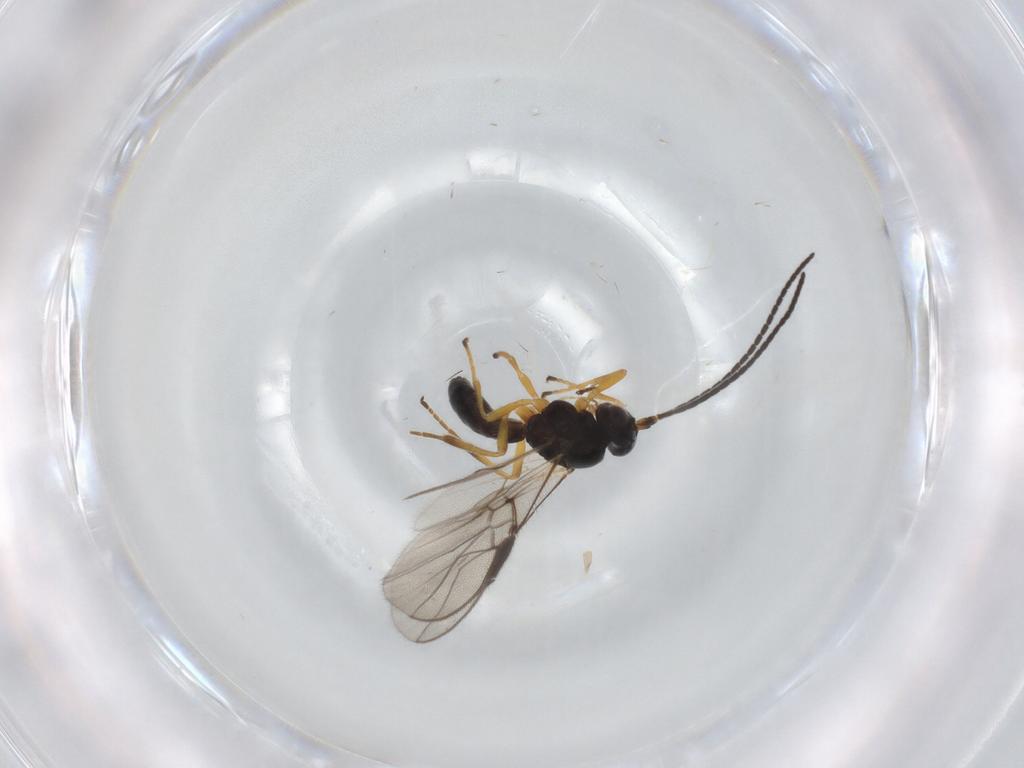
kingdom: Animalia
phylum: Arthropoda
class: Insecta
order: Hymenoptera
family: Braconidae
